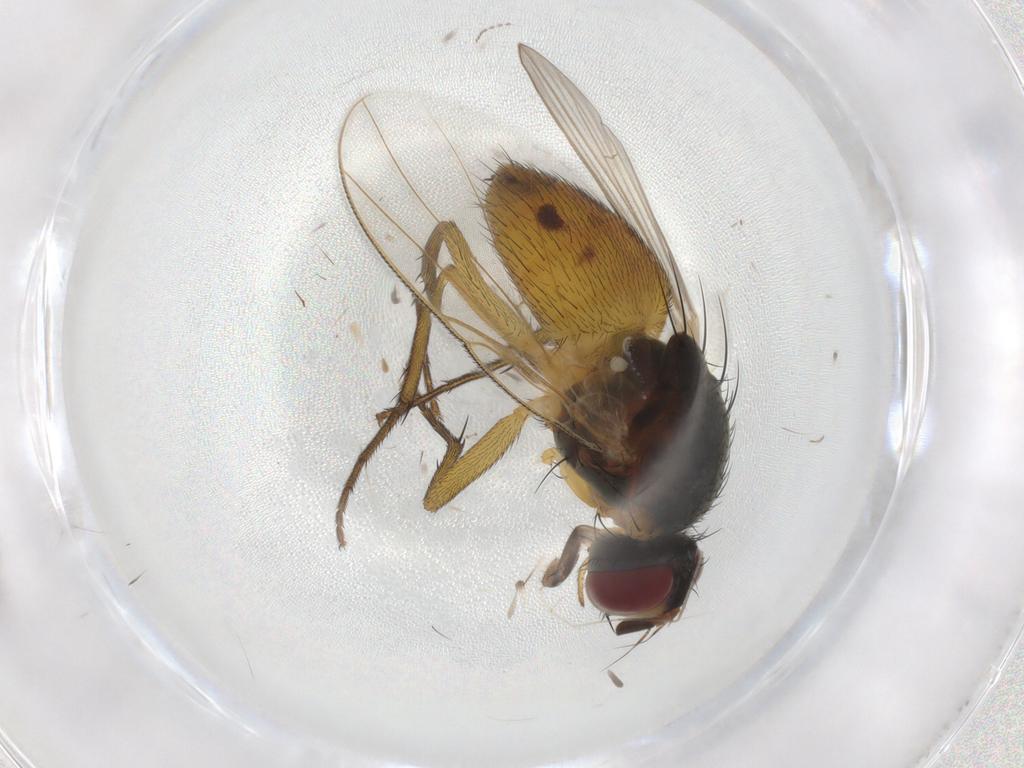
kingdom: Animalia
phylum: Arthropoda
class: Insecta
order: Diptera
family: Muscidae
